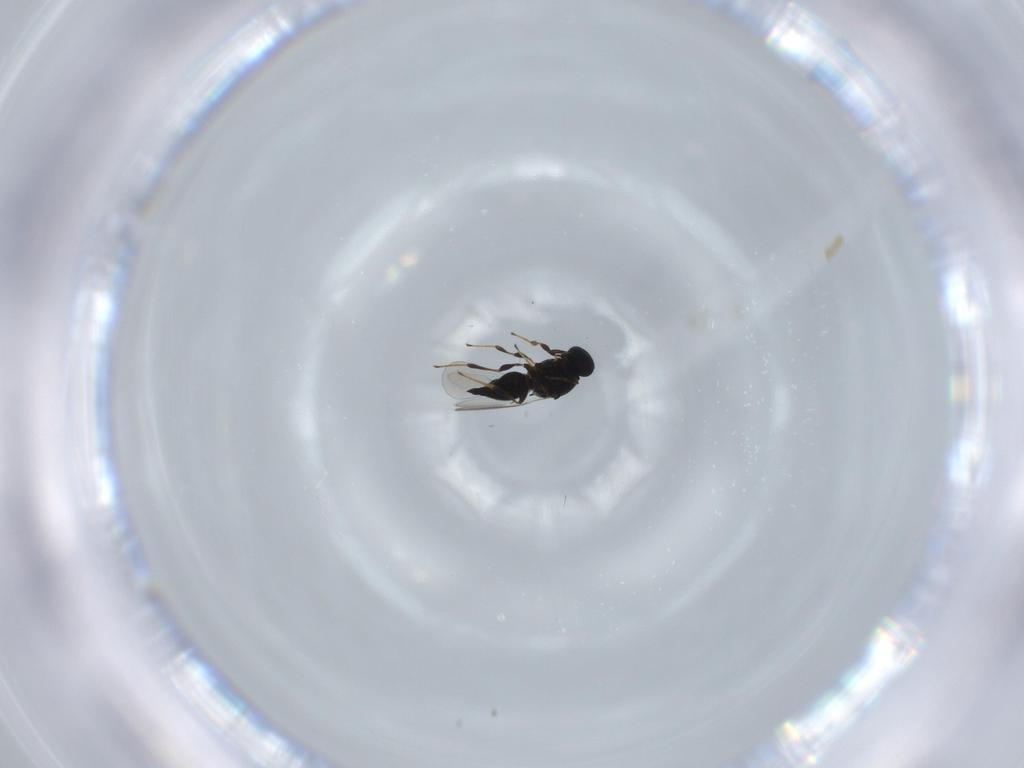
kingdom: Animalia
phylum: Arthropoda
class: Insecta
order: Hymenoptera
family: Platygastridae
